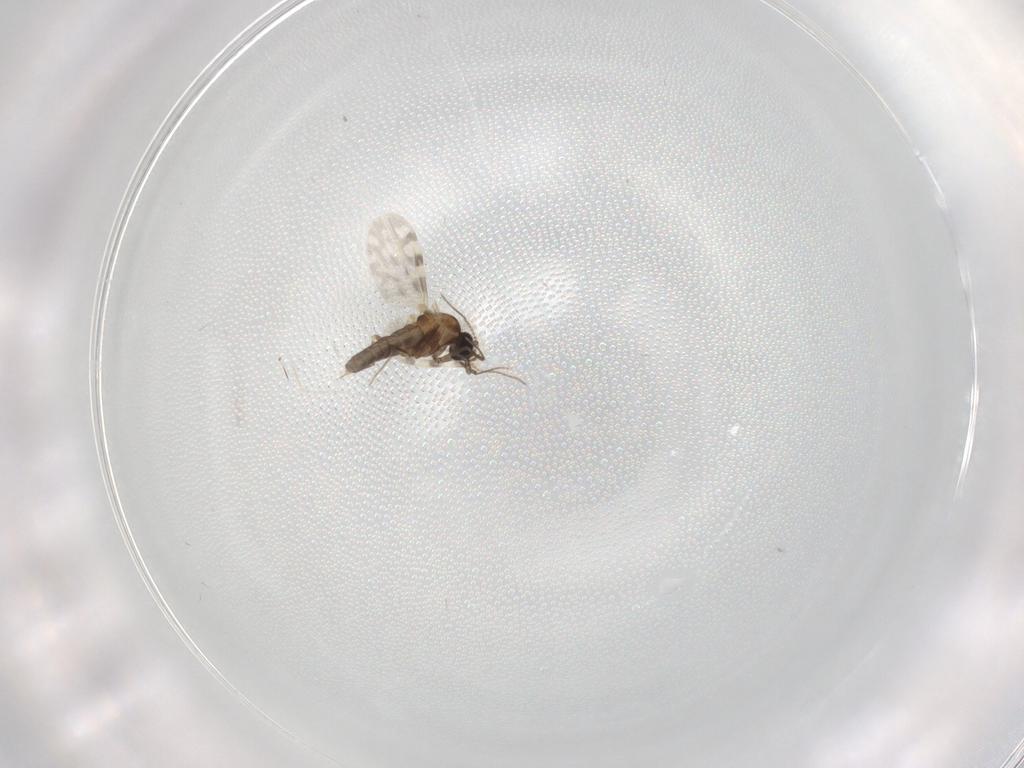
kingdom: Animalia
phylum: Arthropoda
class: Insecta
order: Diptera
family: Ceratopogonidae
